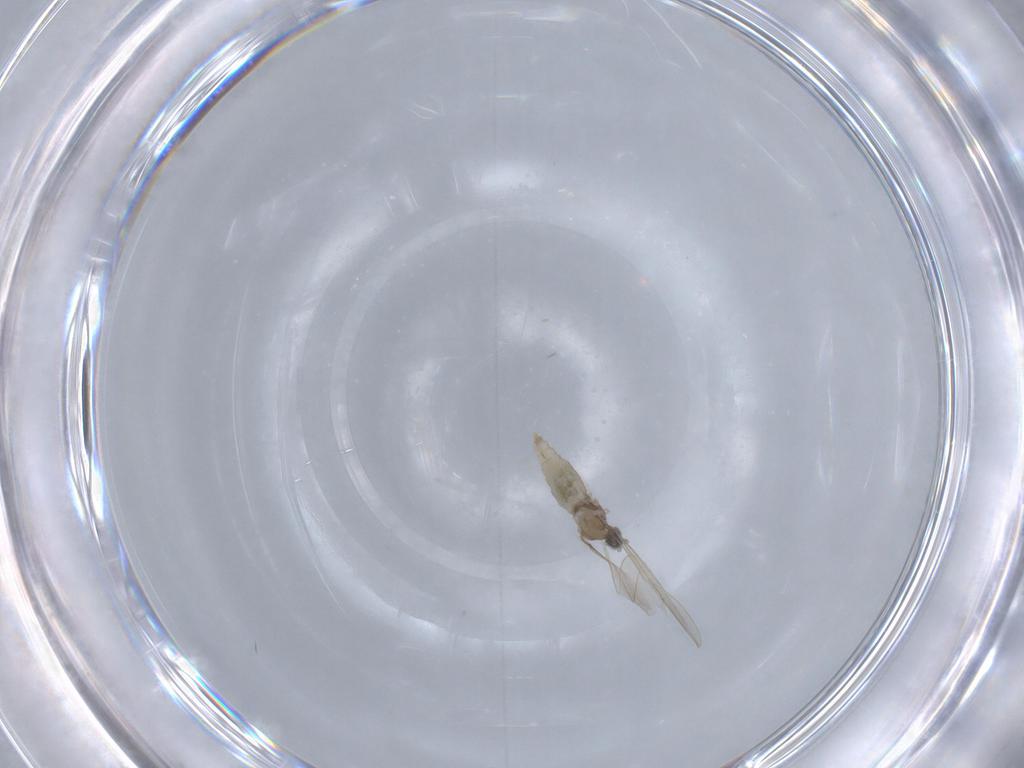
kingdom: Animalia
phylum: Arthropoda
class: Insecta
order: Diptera
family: Cecidomyiidae
